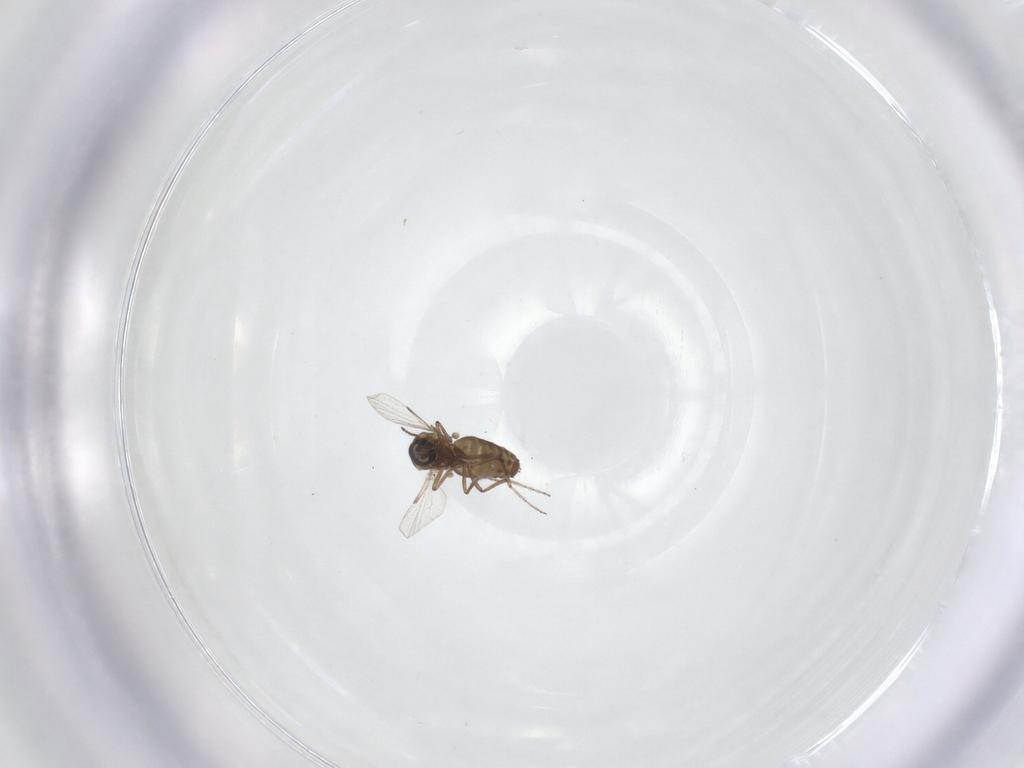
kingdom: Animalia
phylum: Arthropoda
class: Insecta
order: Diptera
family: Ceratopogonidae
